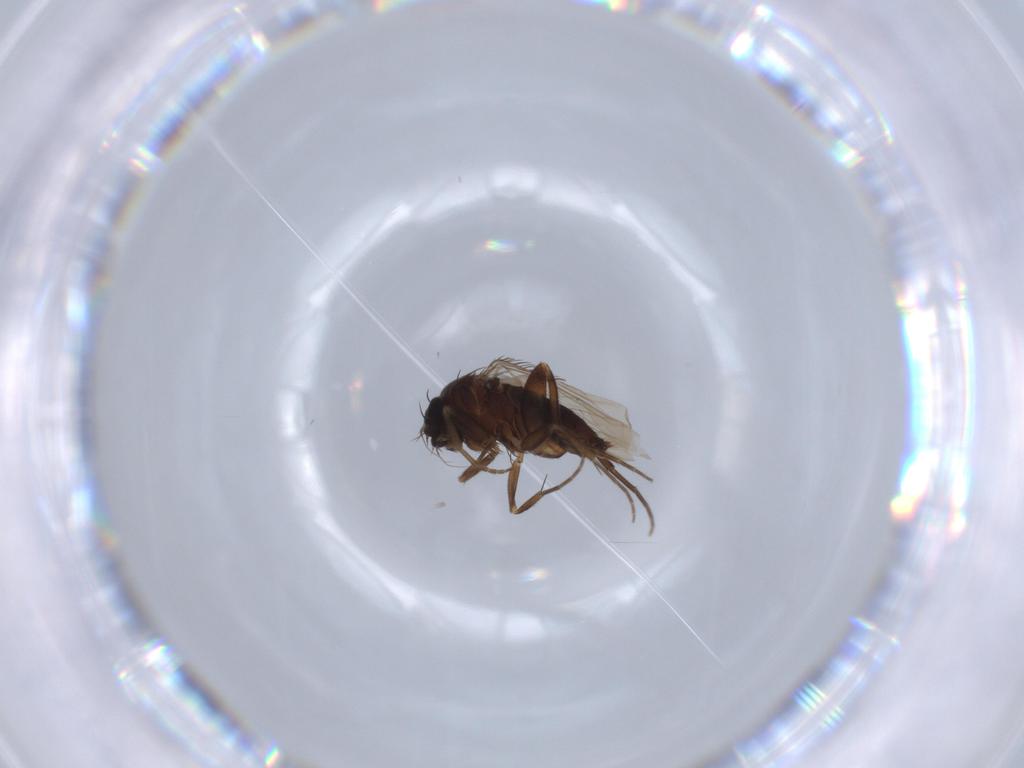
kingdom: Animalia
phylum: Arthropoda
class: Insecta
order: Diptera
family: Phoridae
